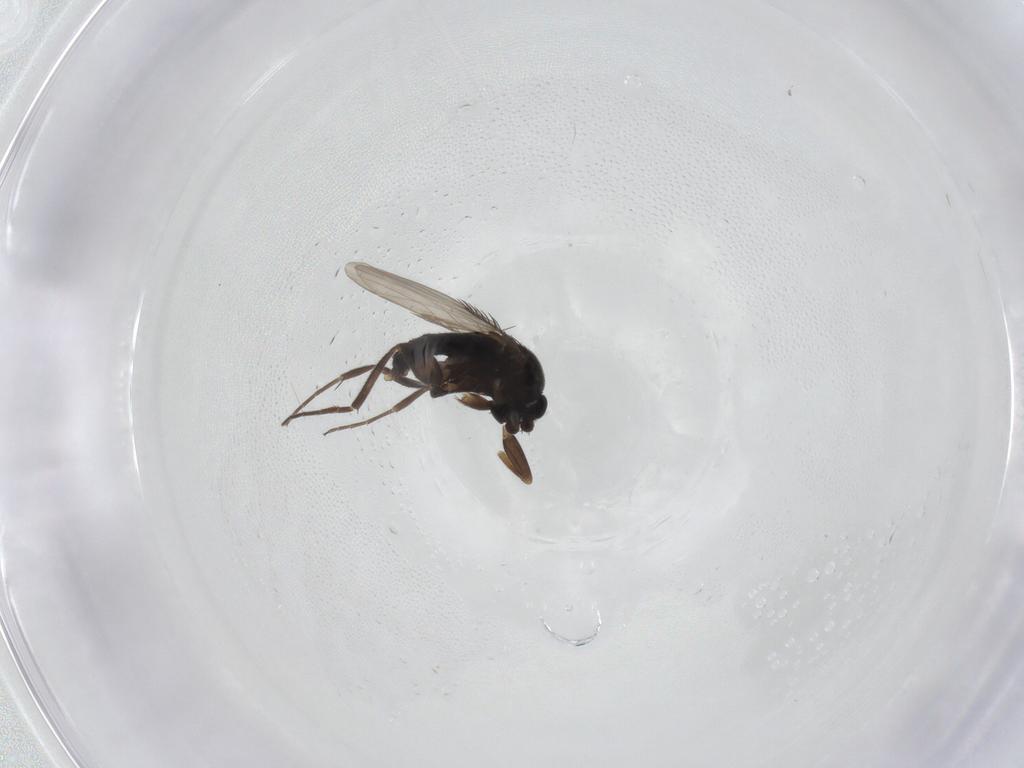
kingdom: Animalia
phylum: Arthropoda
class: Insecta
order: Diptera
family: Phoridae
